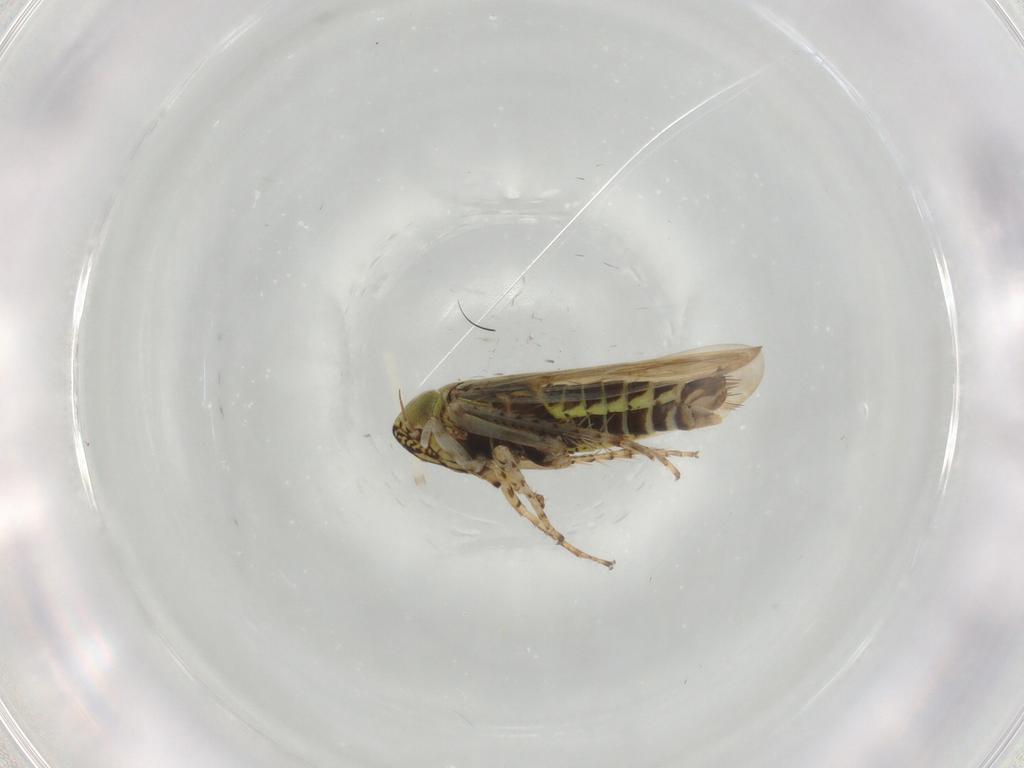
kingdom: Animalia
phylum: Arthropoda
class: Insecta
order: Hemiptera
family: Cicadellidae
